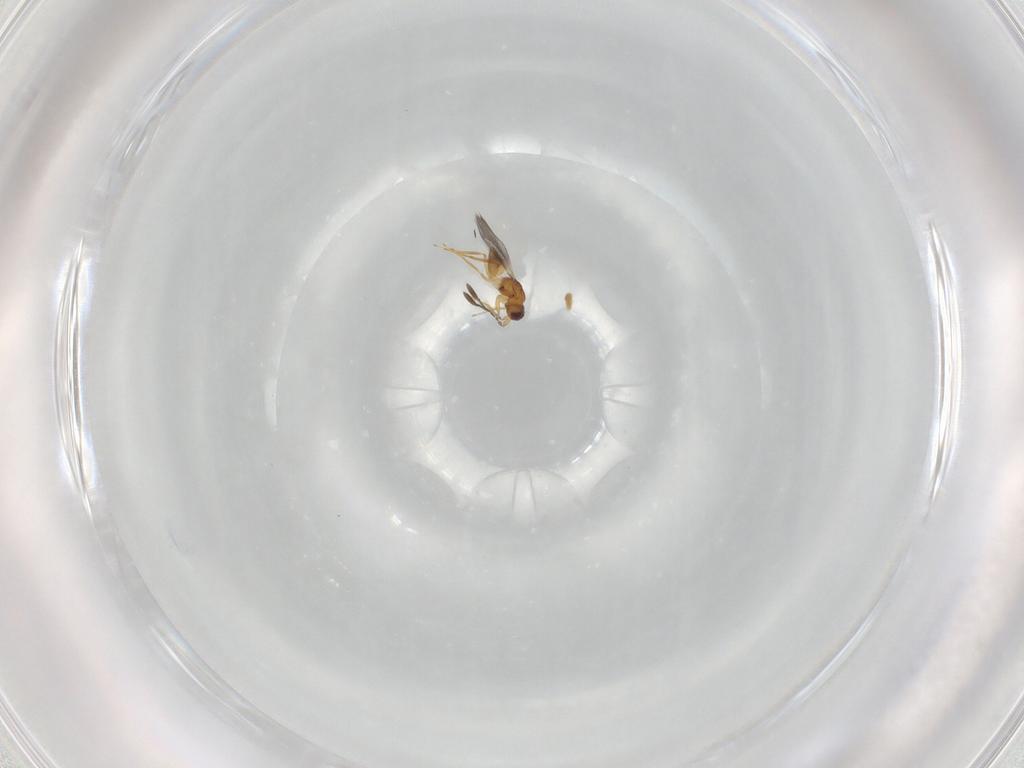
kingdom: Animalia
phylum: Arthropoda
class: Insecta
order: Hymenoptera
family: Mymaridae
